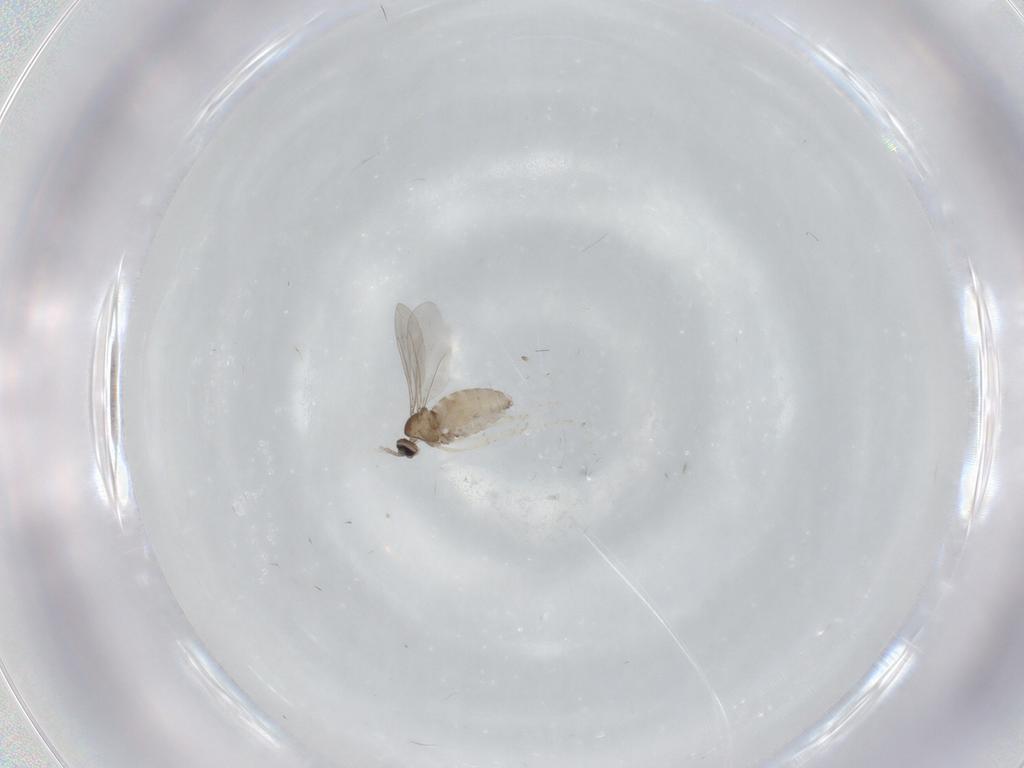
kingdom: Animalia
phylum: Arthropoda
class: Insecta
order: Diptera
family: Cecidomyiidae
